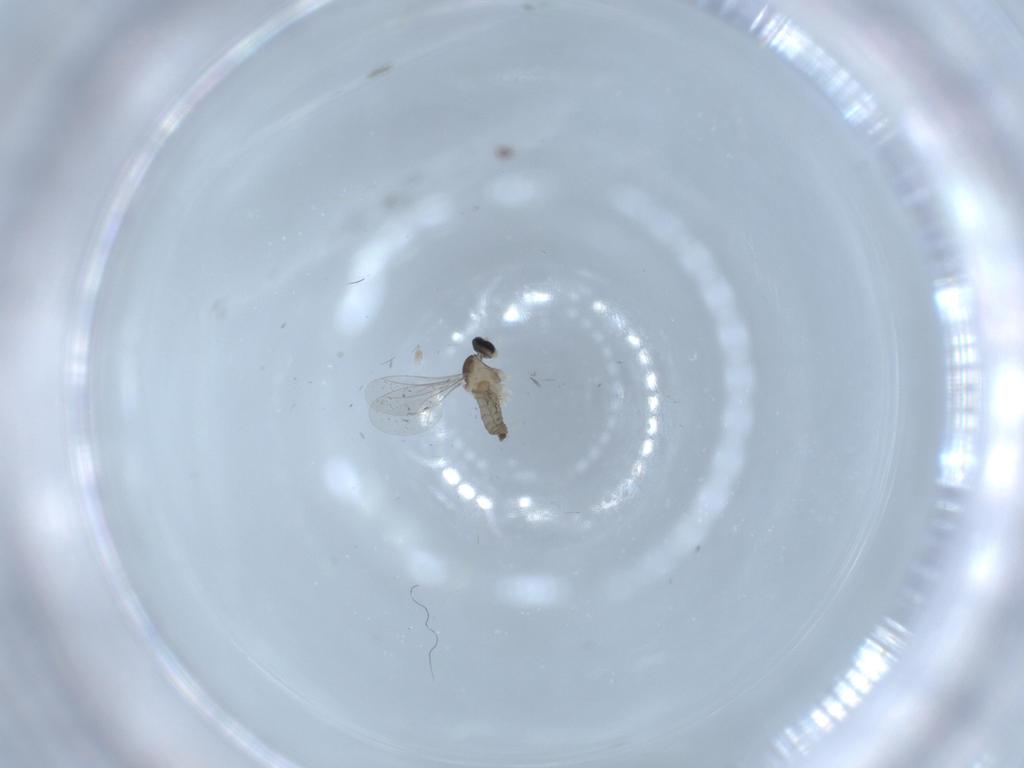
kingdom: Animalia
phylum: Arthropoda
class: Insecta
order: Diptera
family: Cecidomyiidae
